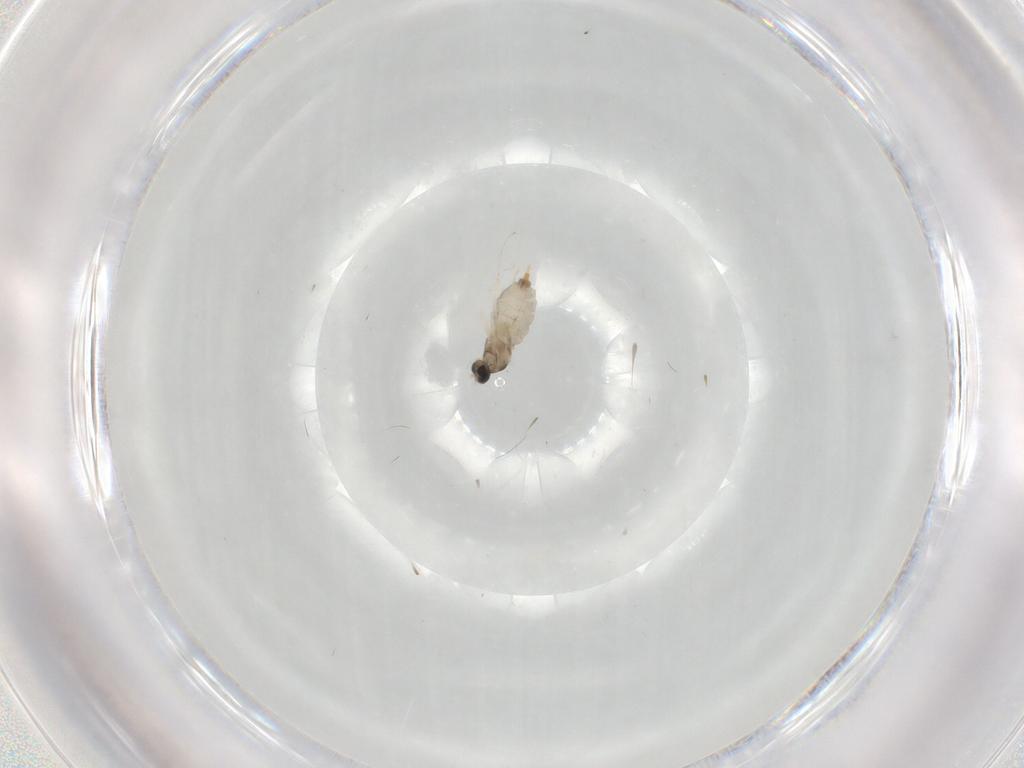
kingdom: Animalia
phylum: Arthropoda
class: Insecta
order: Diptera
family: Cecidomyiidae
